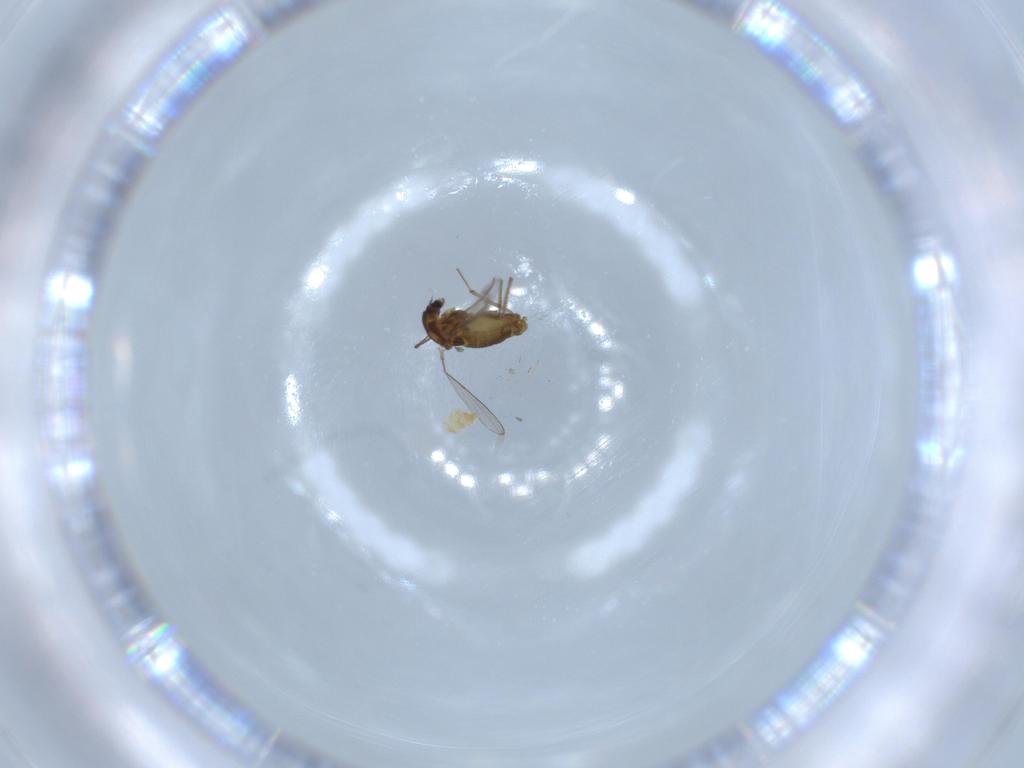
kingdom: Animalia
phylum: Arthropoda
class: Insecta
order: Diptera
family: Chironomidae
